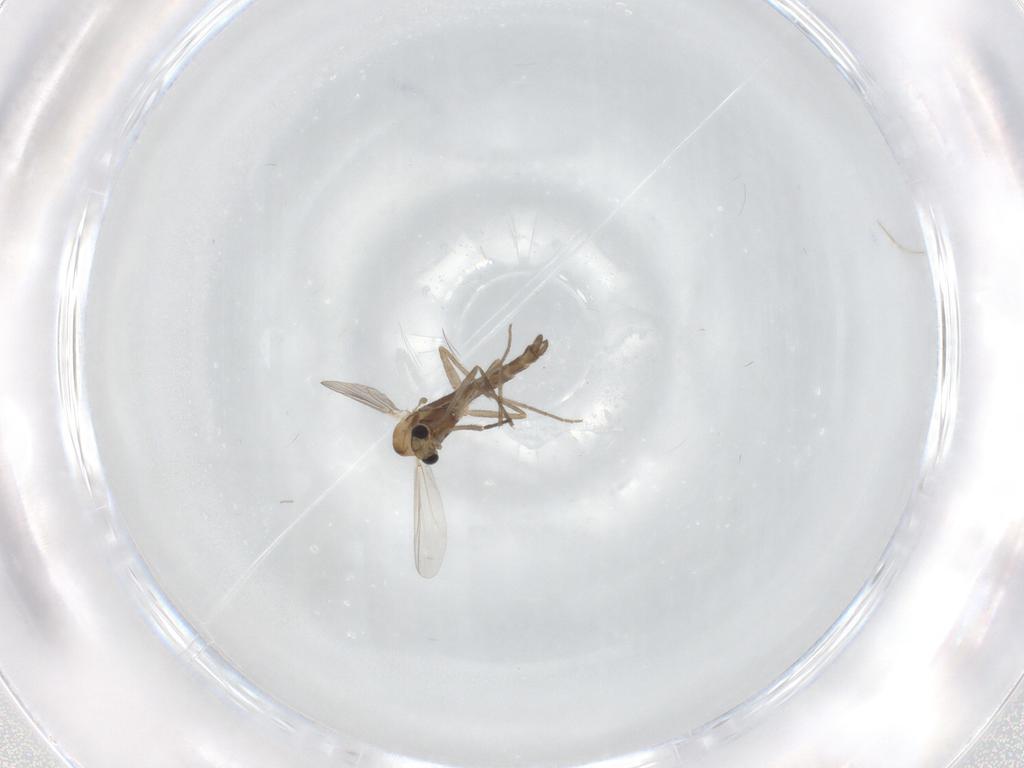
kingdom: Animalia
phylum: Arthropoda
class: Insecta
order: Diptera
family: Chironomidae
